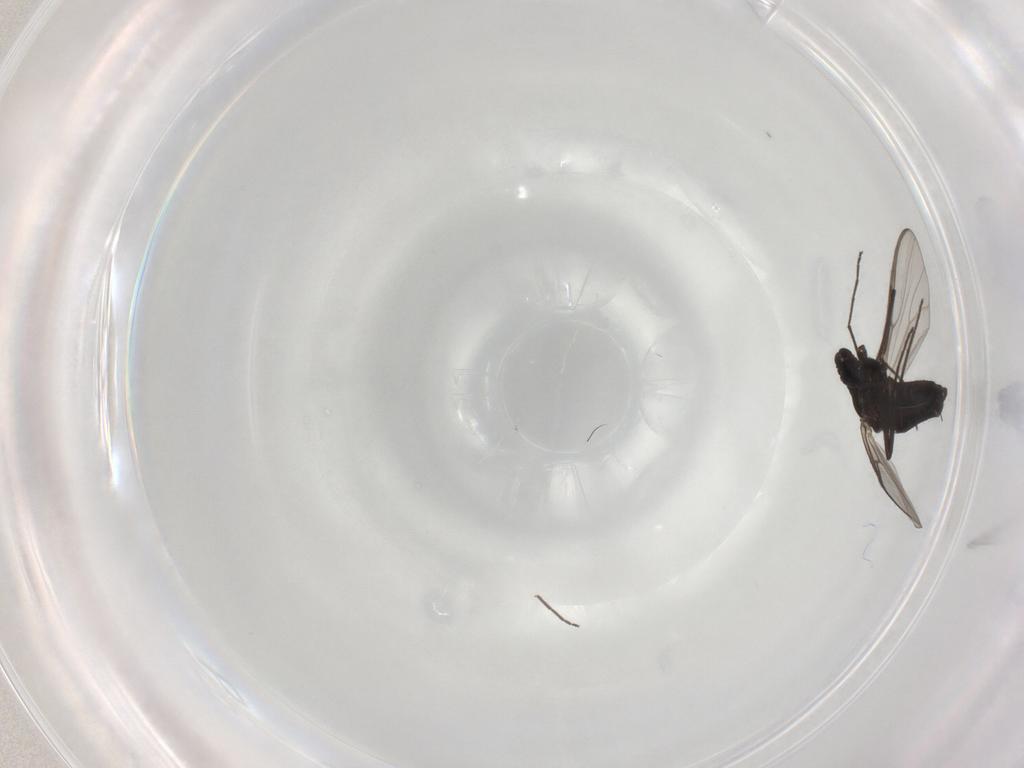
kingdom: Animalia
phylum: Arthropoda
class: Insecta
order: Diptera
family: Chironomidae
